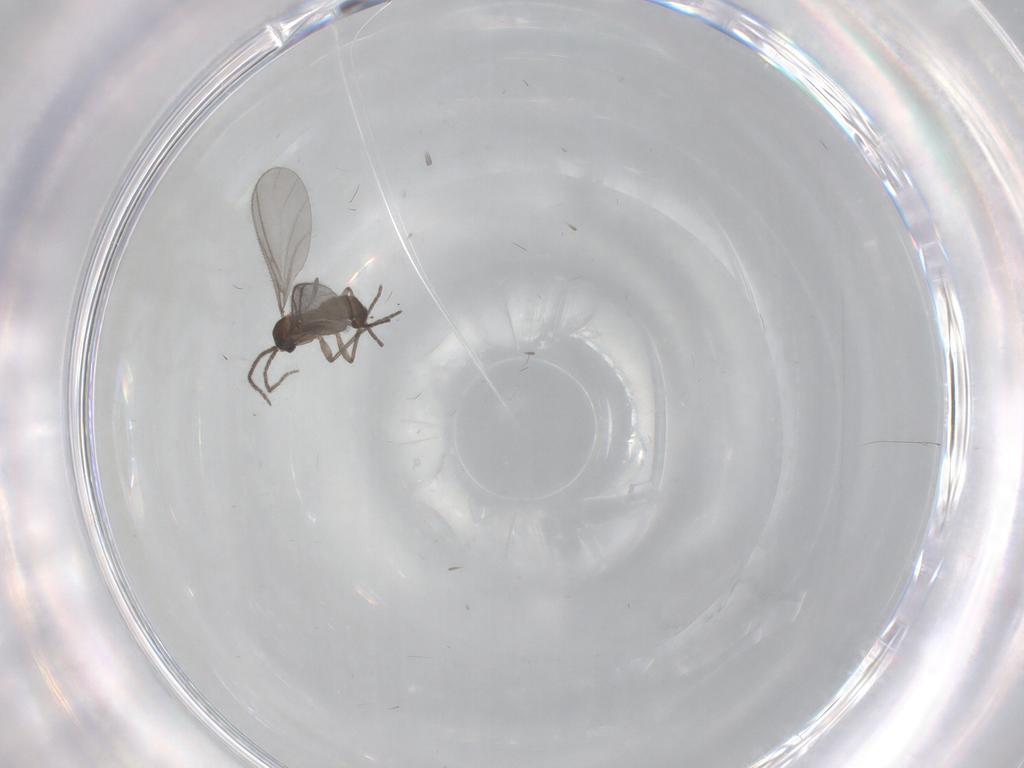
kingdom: Animalia
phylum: Arthropoda
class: Insecta
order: Diptera
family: Sciaridae
